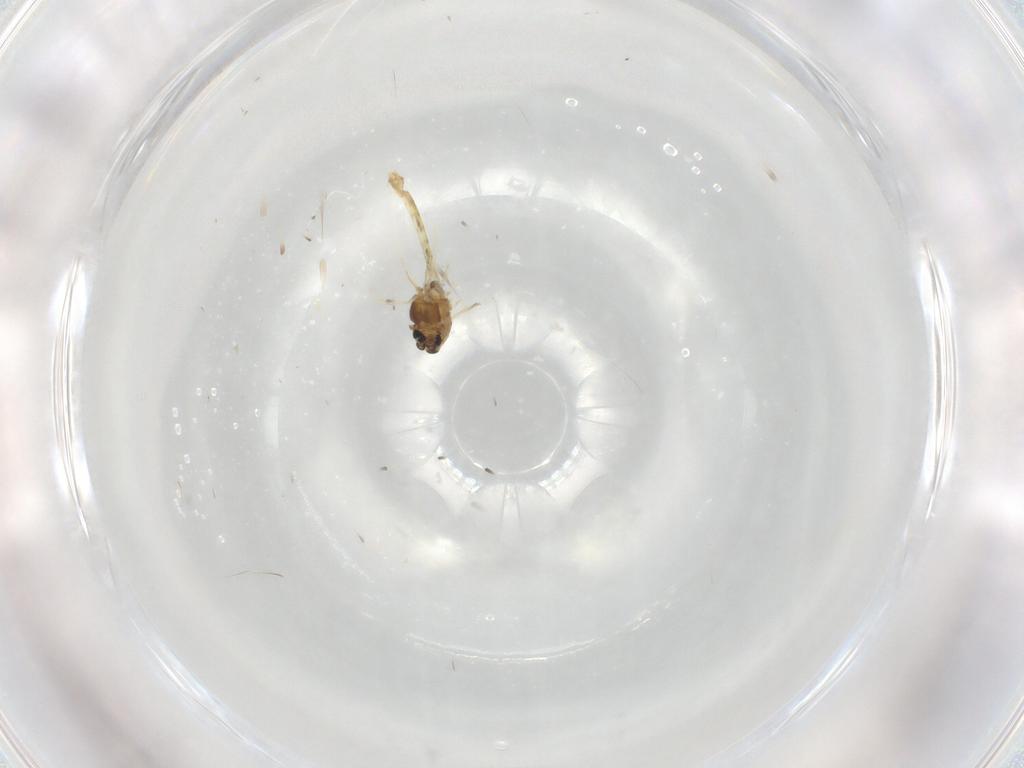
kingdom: Animalia
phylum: Arthropoda
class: Insecta
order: Diptera
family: Chironomidae
